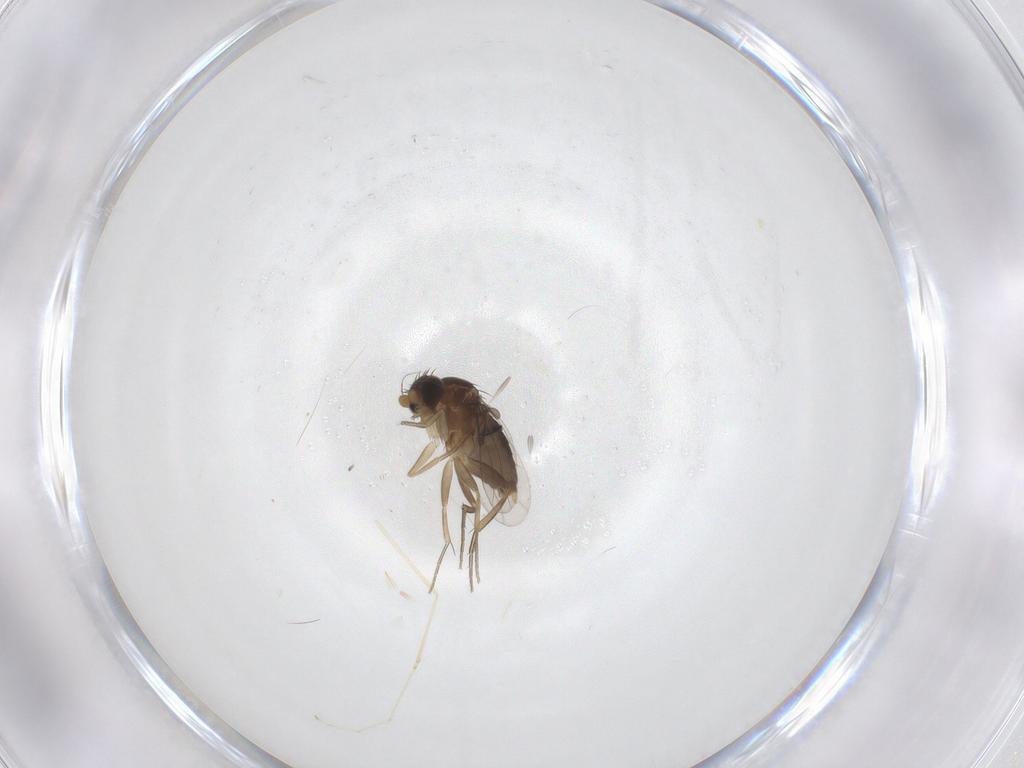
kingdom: Animalia
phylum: Arthropoda
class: Insecta
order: Diptera
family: Phoridae
